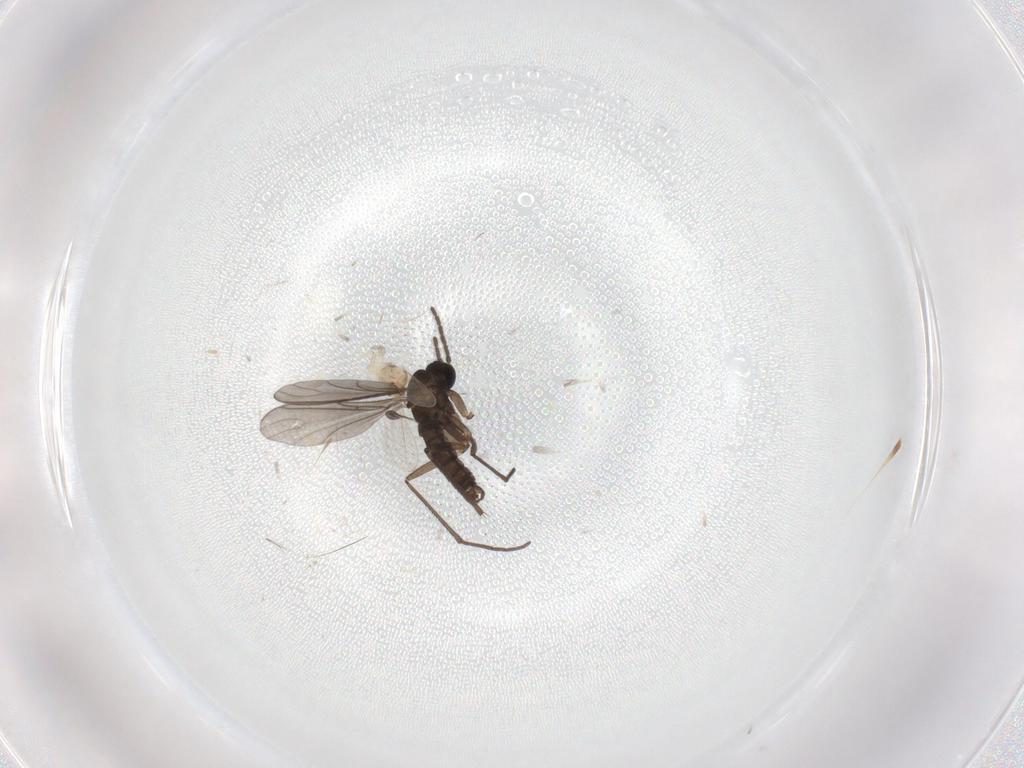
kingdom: Animalia
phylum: Arthropoda
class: Insecta
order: Diptera
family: Cecidomyiidae
